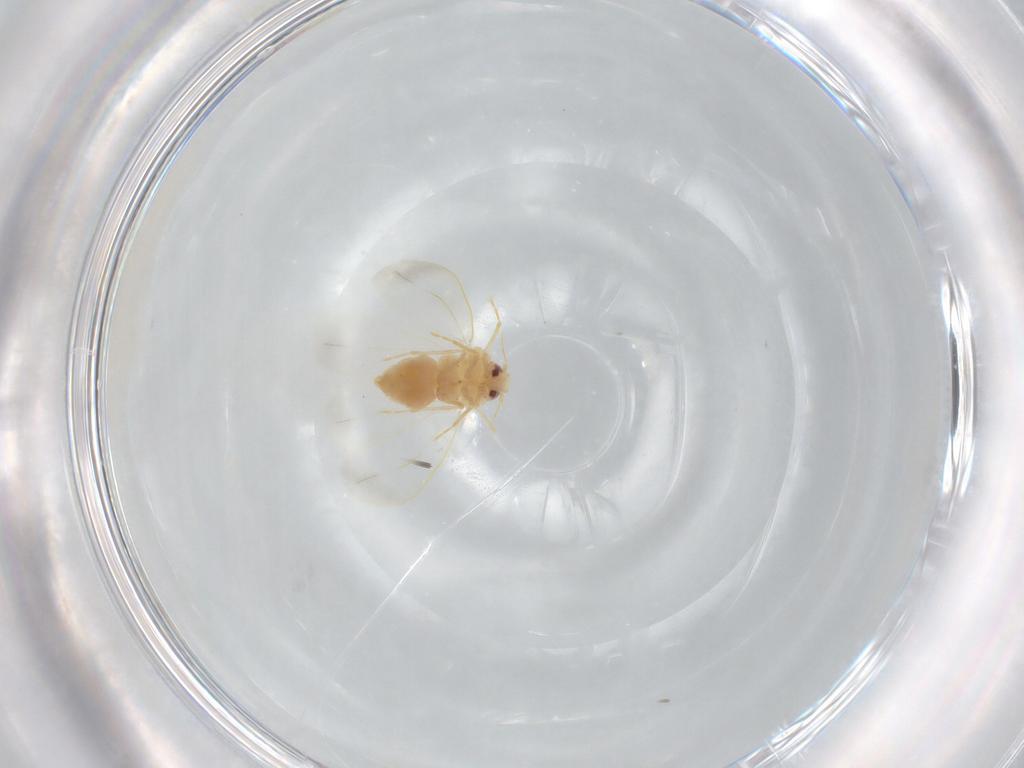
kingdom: Animalia
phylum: Arthropoda
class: Insecta
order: Hemiptera
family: Aleyrodidae
